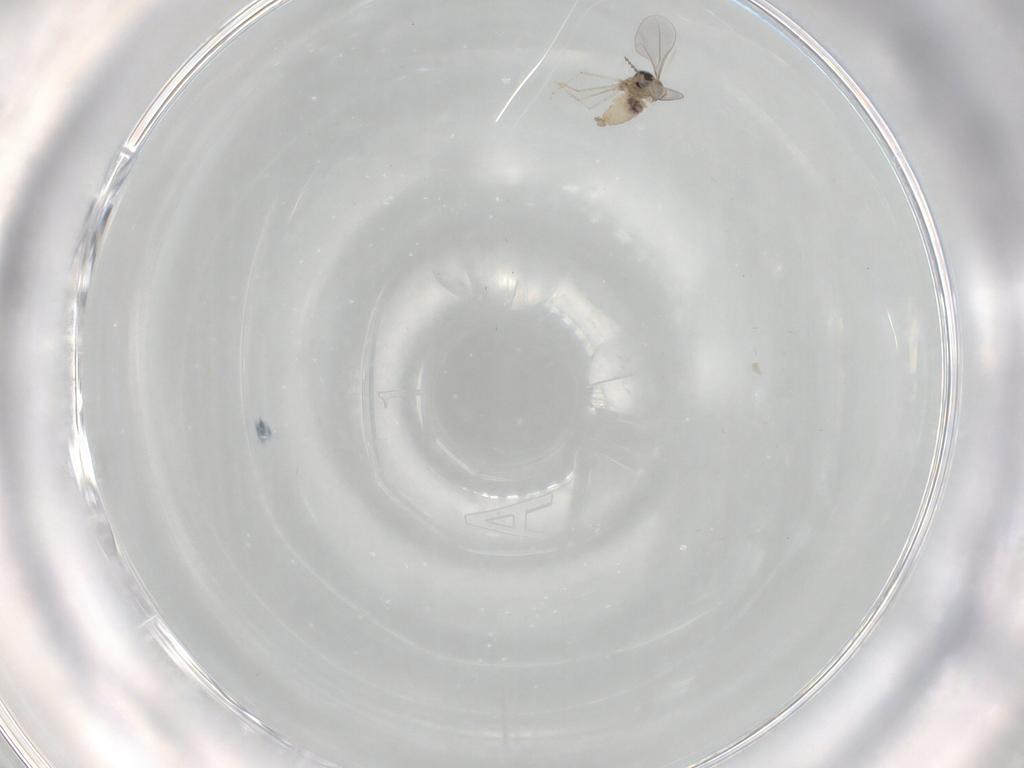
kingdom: Animalia
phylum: Arthropoda
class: Insecta
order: Diptera
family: Cecidomyiidae
